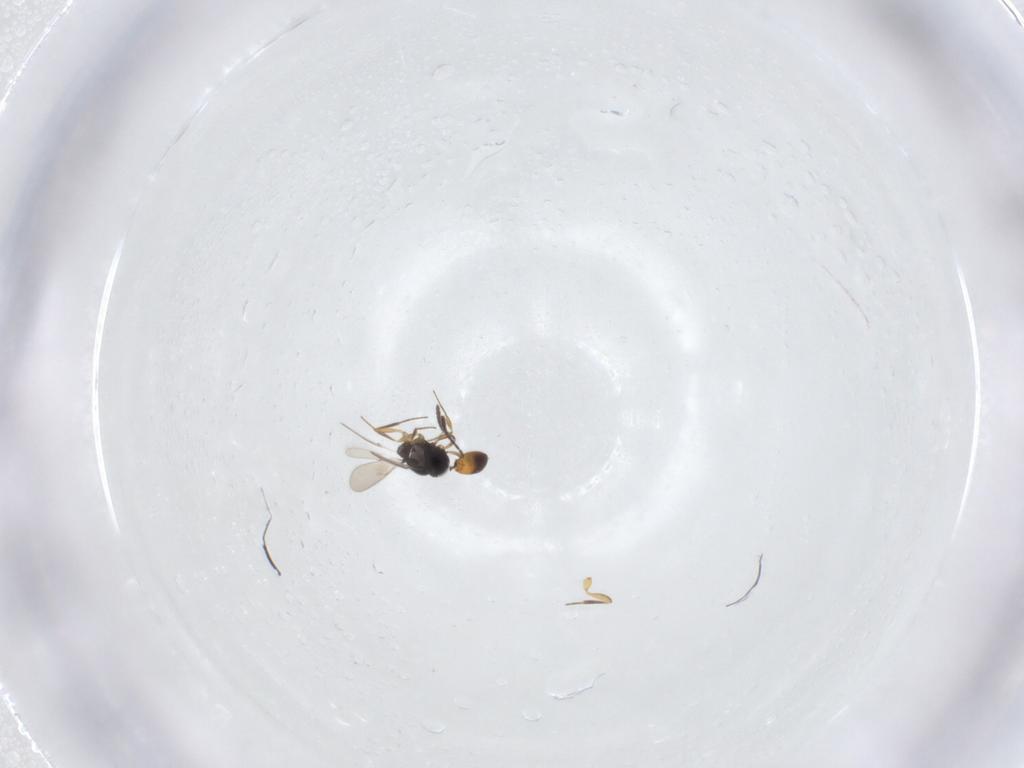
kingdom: Animalia
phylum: Arthropoda
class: Insecta
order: Hymenoptera
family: Scelionidae
